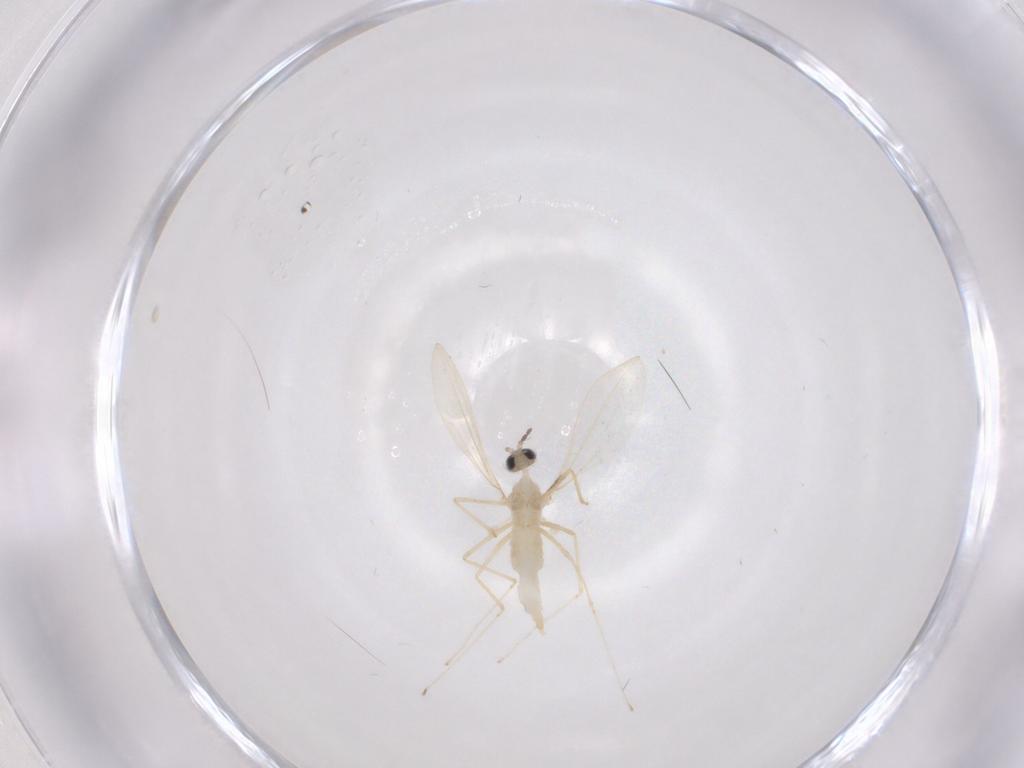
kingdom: Animalia
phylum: Arthropoda
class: Insecta
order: Diptera
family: Cecidomyiidae
